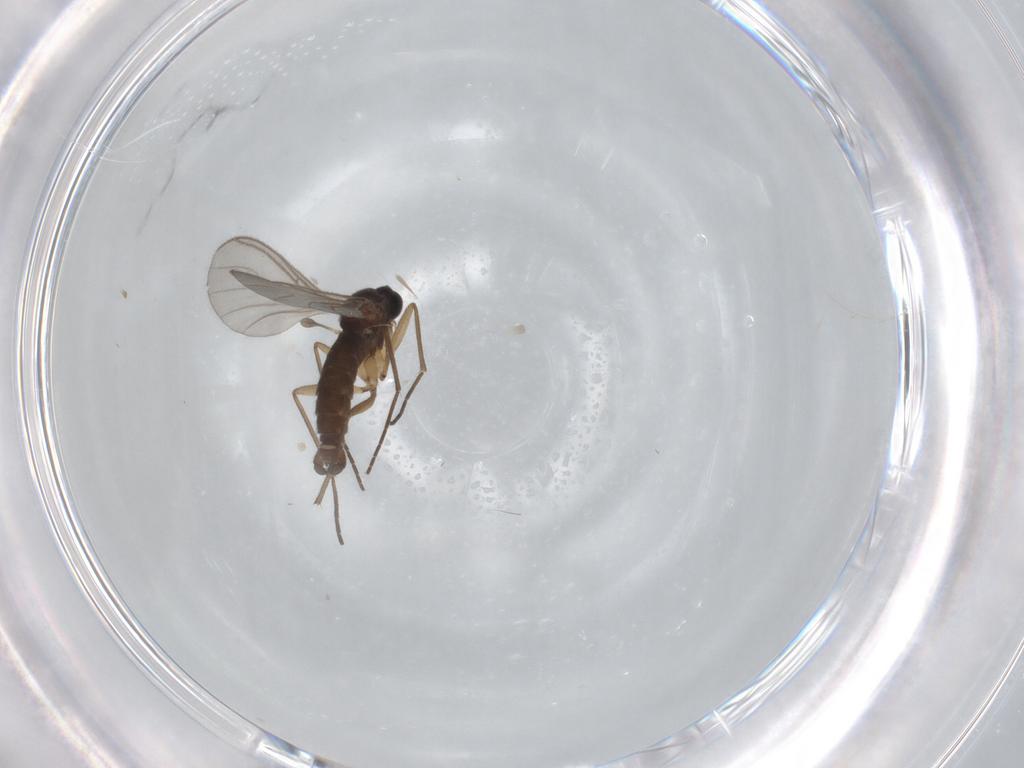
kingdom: Animalia
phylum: Arthropoda
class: Insecta
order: Diptera
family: Sciaridae
